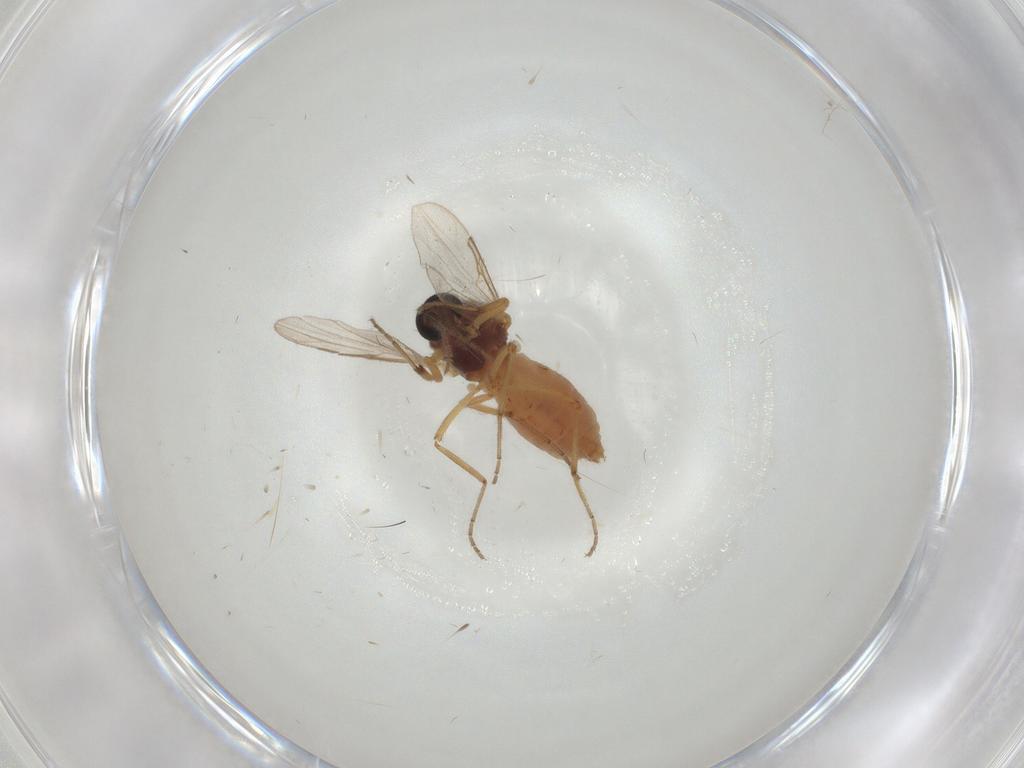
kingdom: Animalia
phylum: Arthropoda
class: Insecta
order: Diptera
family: Ceratopogonidae
